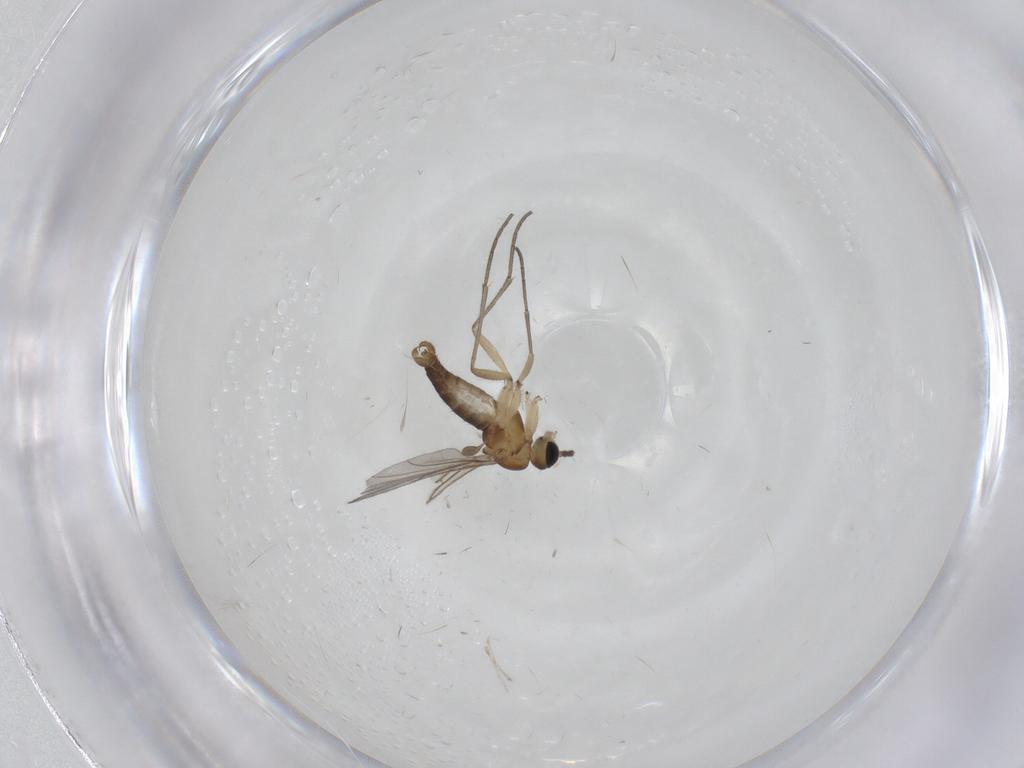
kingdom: Animalia
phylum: Arthropoda
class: Insecta
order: Diptera
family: Sciaridae
